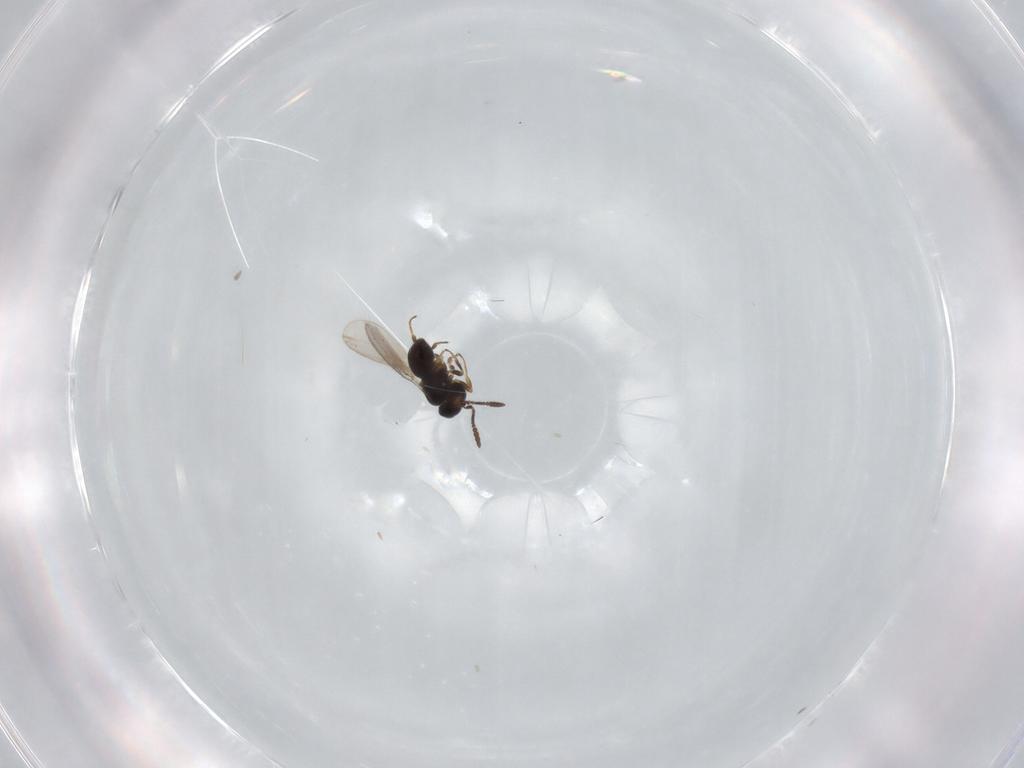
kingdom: Animalia
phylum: Arthropoda
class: Insecta
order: Hymenoptera
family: Scelionidae
